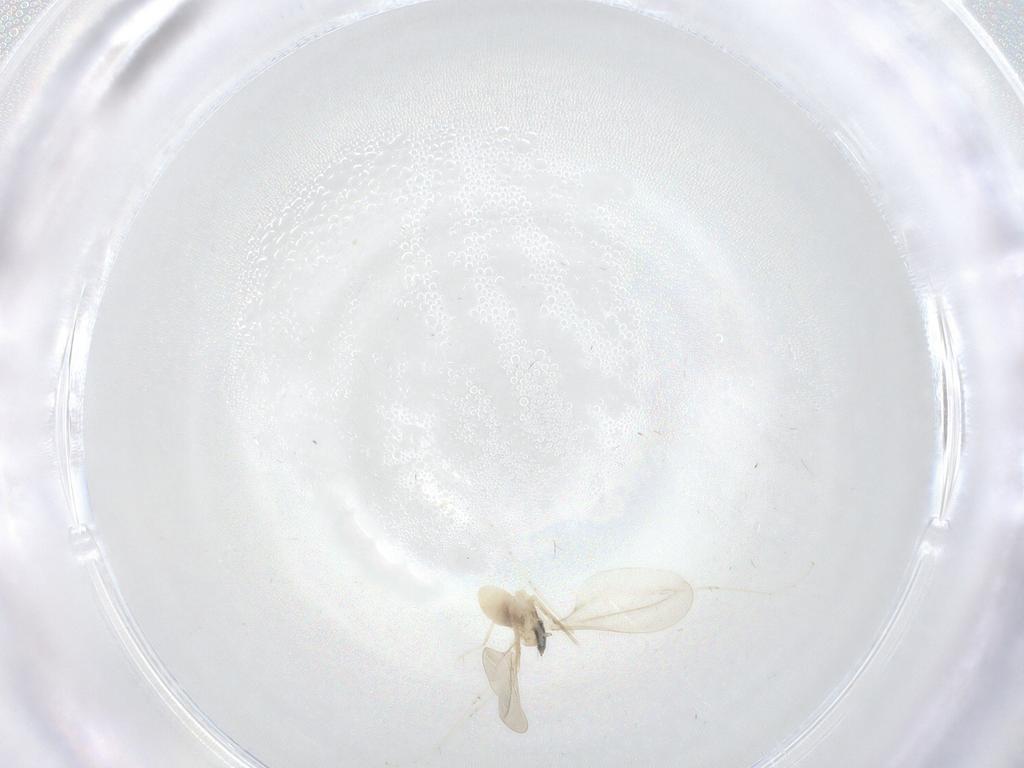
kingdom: Animalia
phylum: Arthropoda
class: Insecta
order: Diptera
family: Cecidomyiidae
